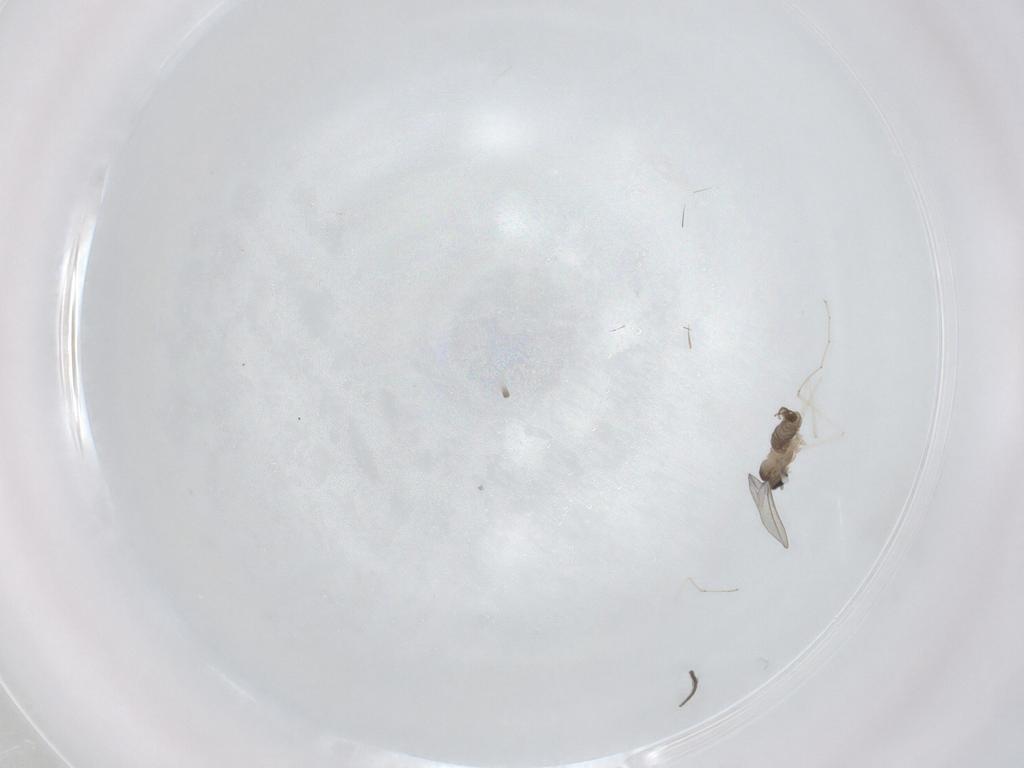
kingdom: Animalia
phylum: Arthropoda
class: Insecta
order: Diptera
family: Cecidomyiidae
